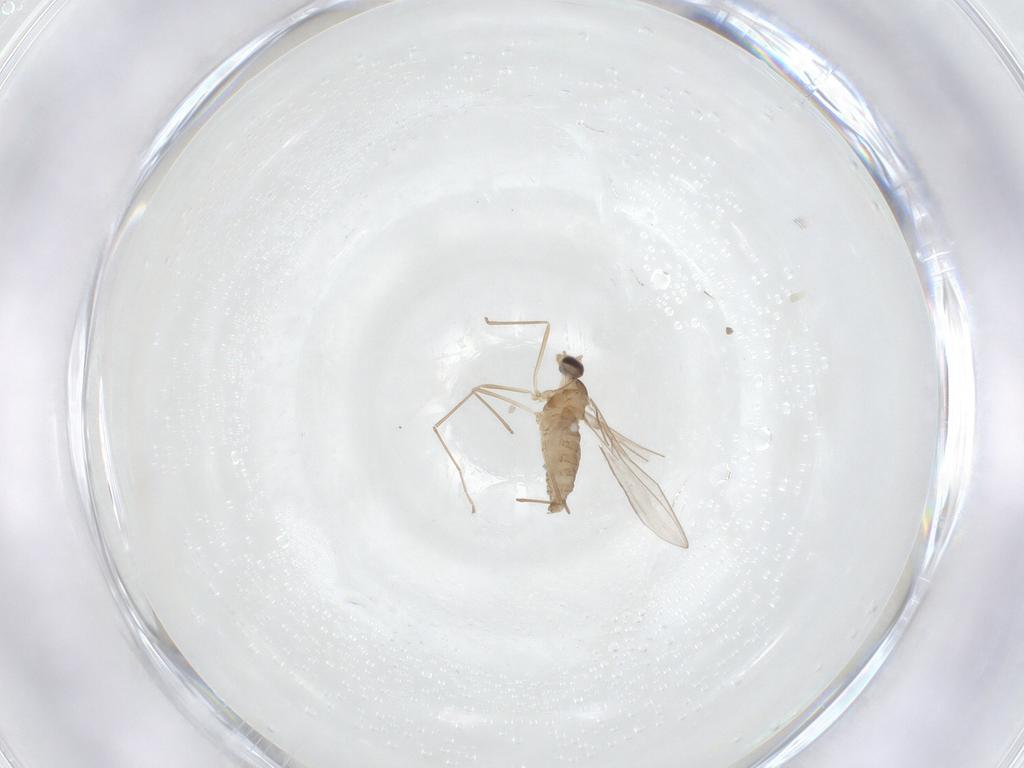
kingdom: Animalia
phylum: Arthropoda
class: Insecta
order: Diptera
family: Cecidomyiidae
